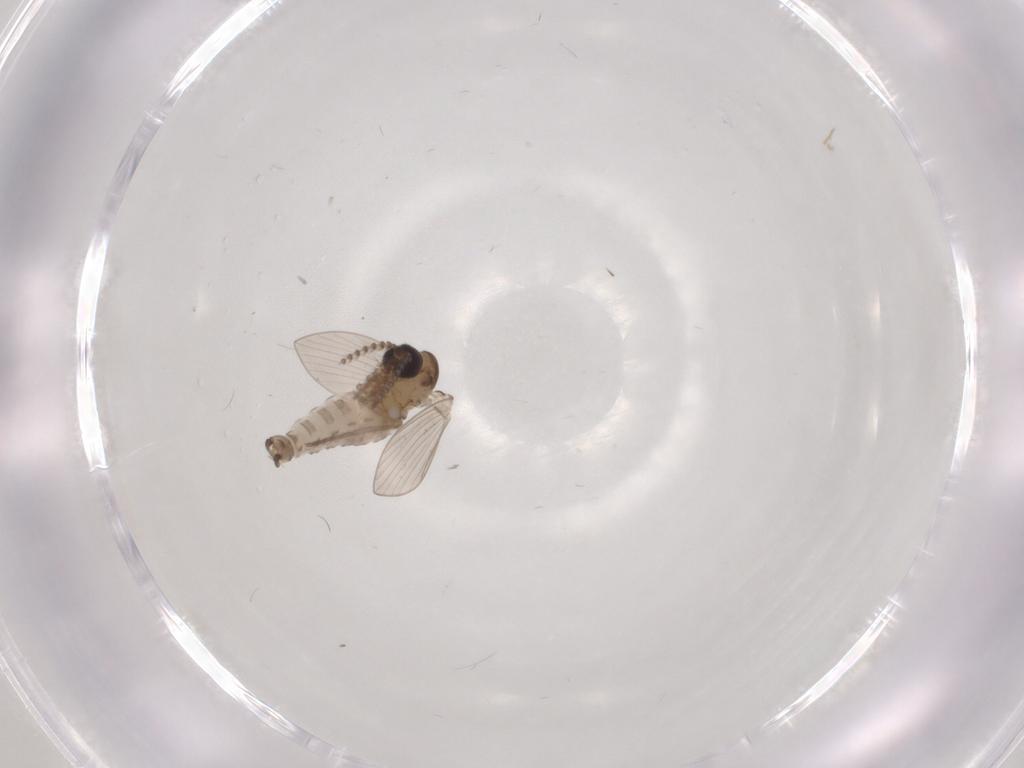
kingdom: Animalia
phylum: Arthropoda
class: Insecta
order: Diptera
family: Psychodidae
